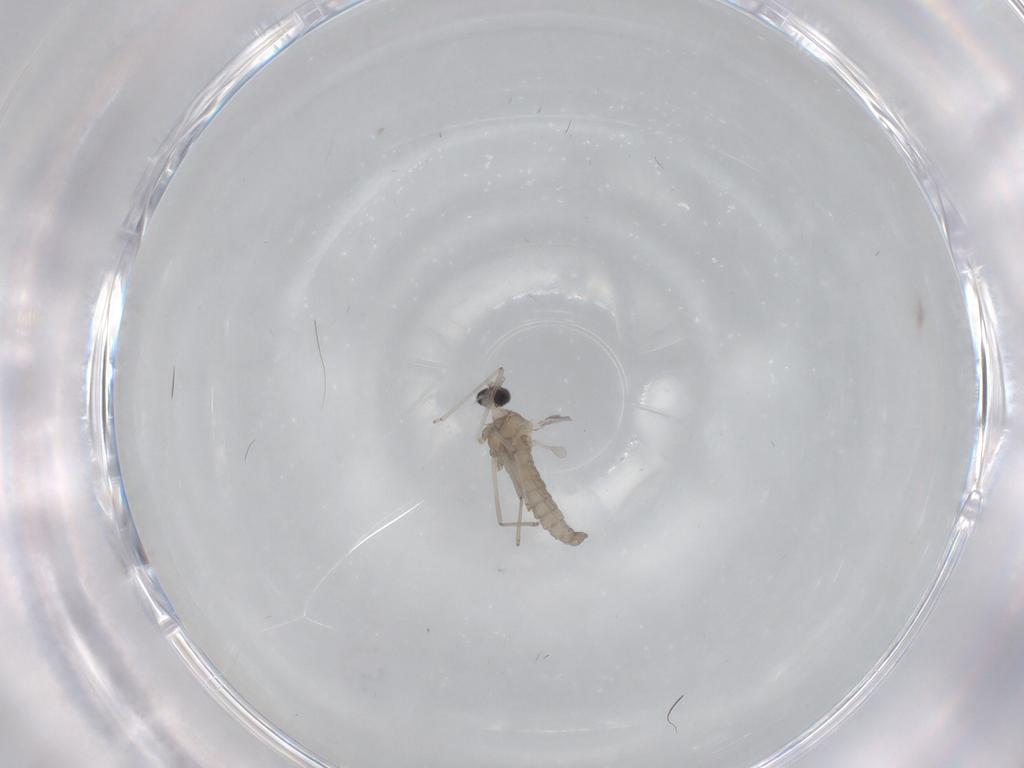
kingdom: Animalia
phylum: Arthropoda
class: Insecta
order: Diptera
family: Cecidomyiidae
